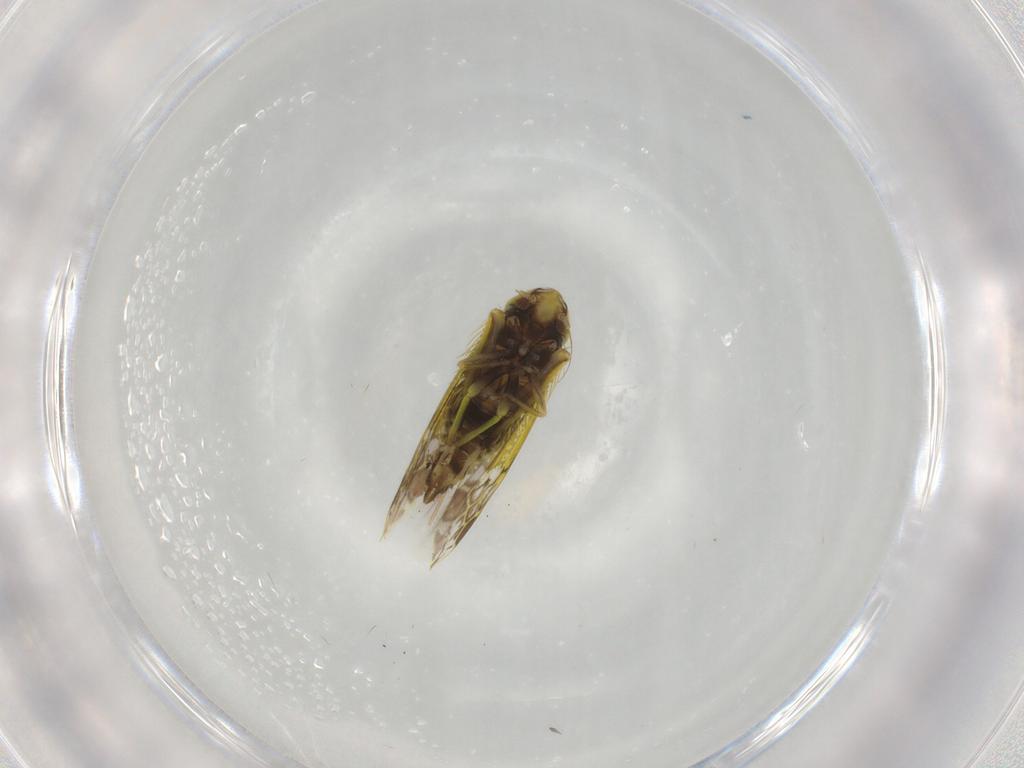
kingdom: Animalia
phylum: Arthropoda
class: Insecta
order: Hemiptera
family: Cicadellidae
